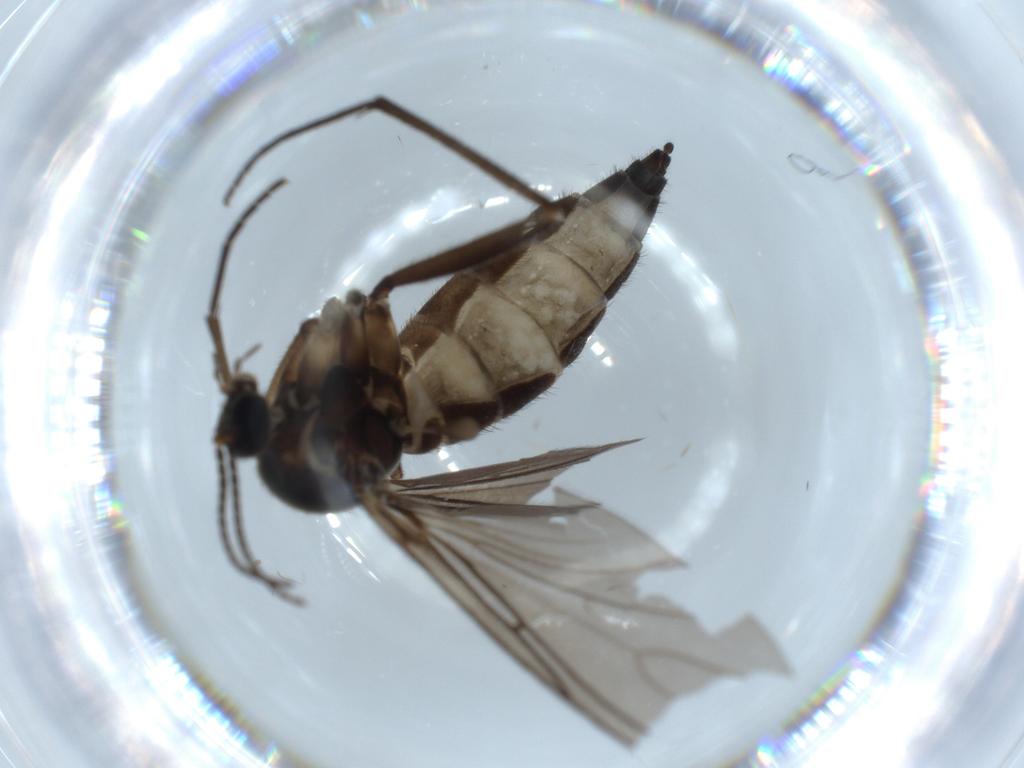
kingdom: Animalia
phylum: Arthropoda
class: Insecta
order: Diptera
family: Sciaridae
